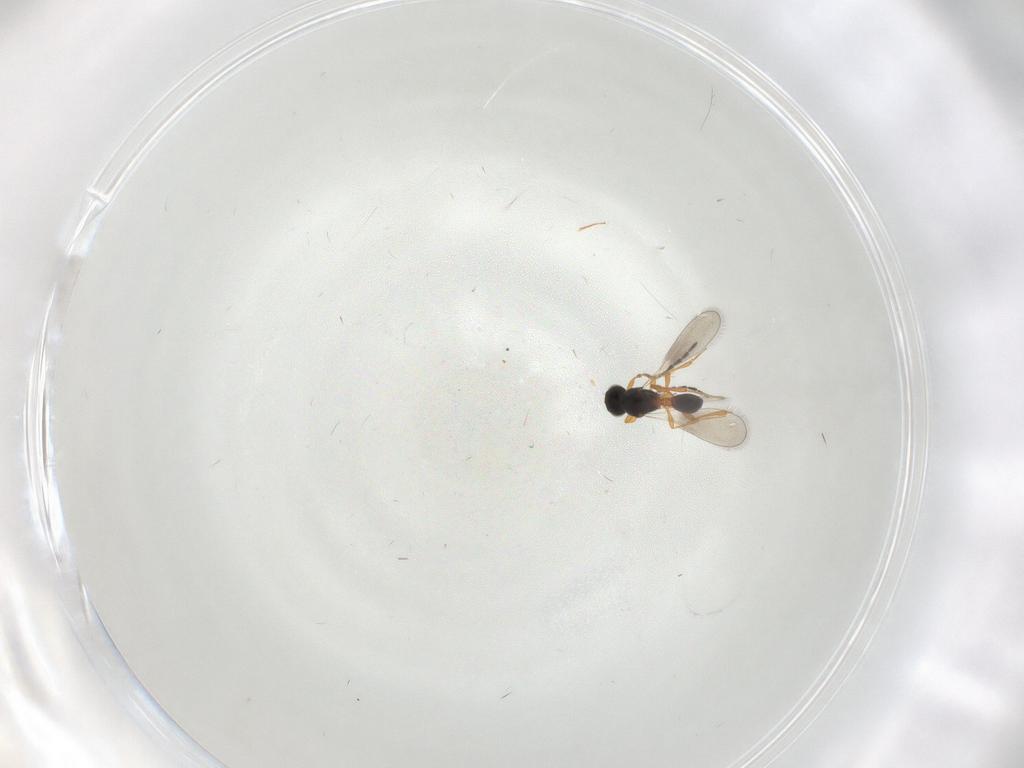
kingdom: Animalia
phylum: Arthropoda
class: Insecta
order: Hymenoptera
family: Platygastridae
